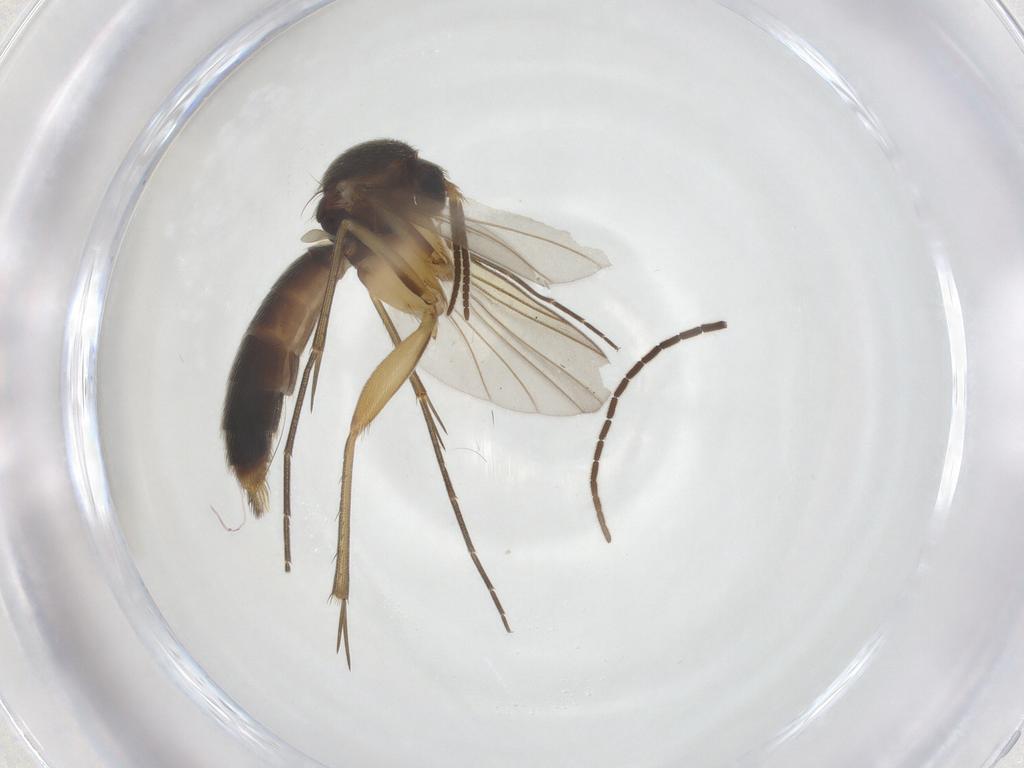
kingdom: Animalia
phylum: Arthropoda
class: Insecta
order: Diptera
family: Mycetophilidae
